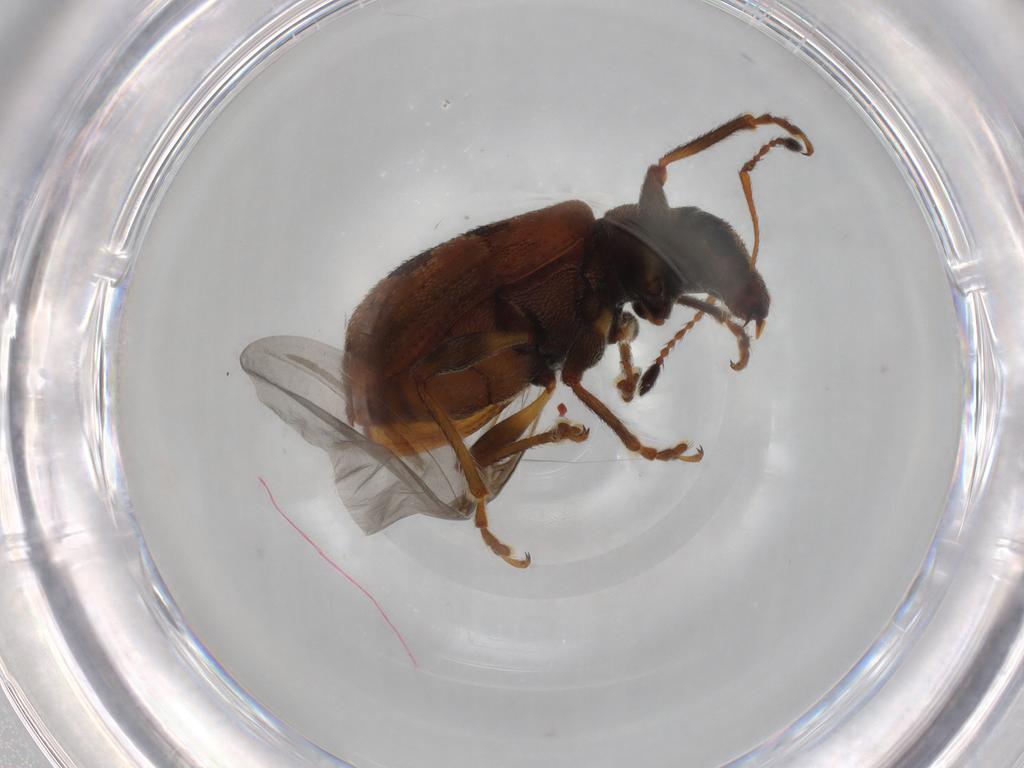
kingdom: Animalia
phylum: Arthropoda
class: Insecta
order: Coleoptera
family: Curculionidae
